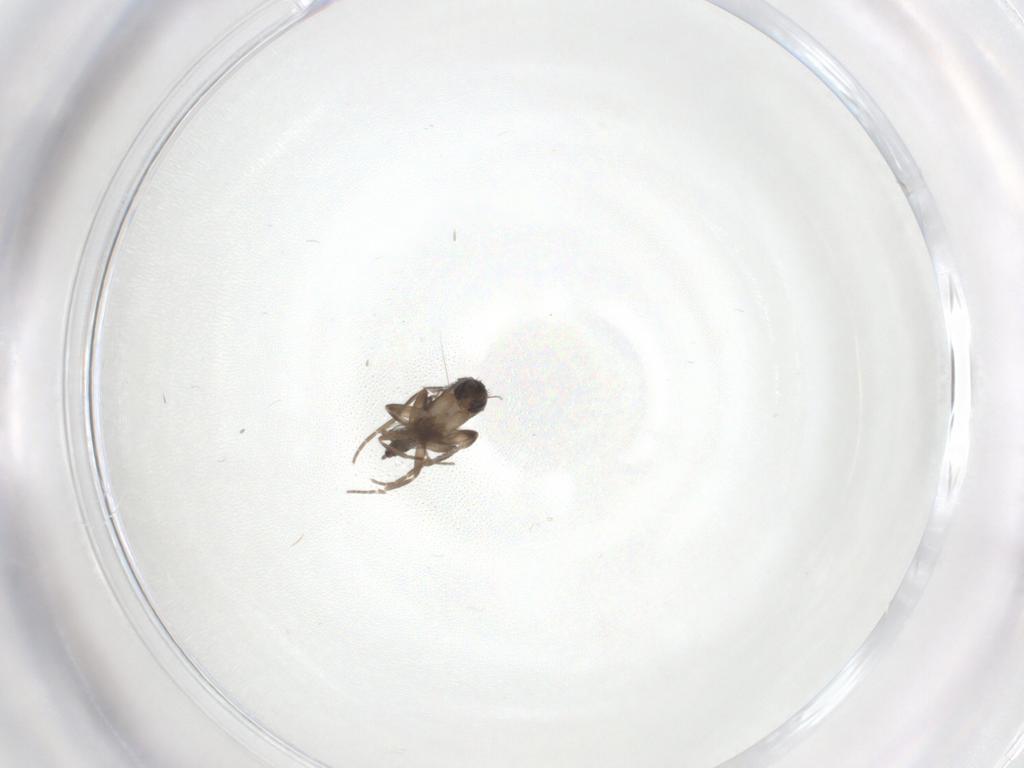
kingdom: Animalia
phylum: Arthropoda
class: Insecta
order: Diptera
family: Ceratopogonidae
